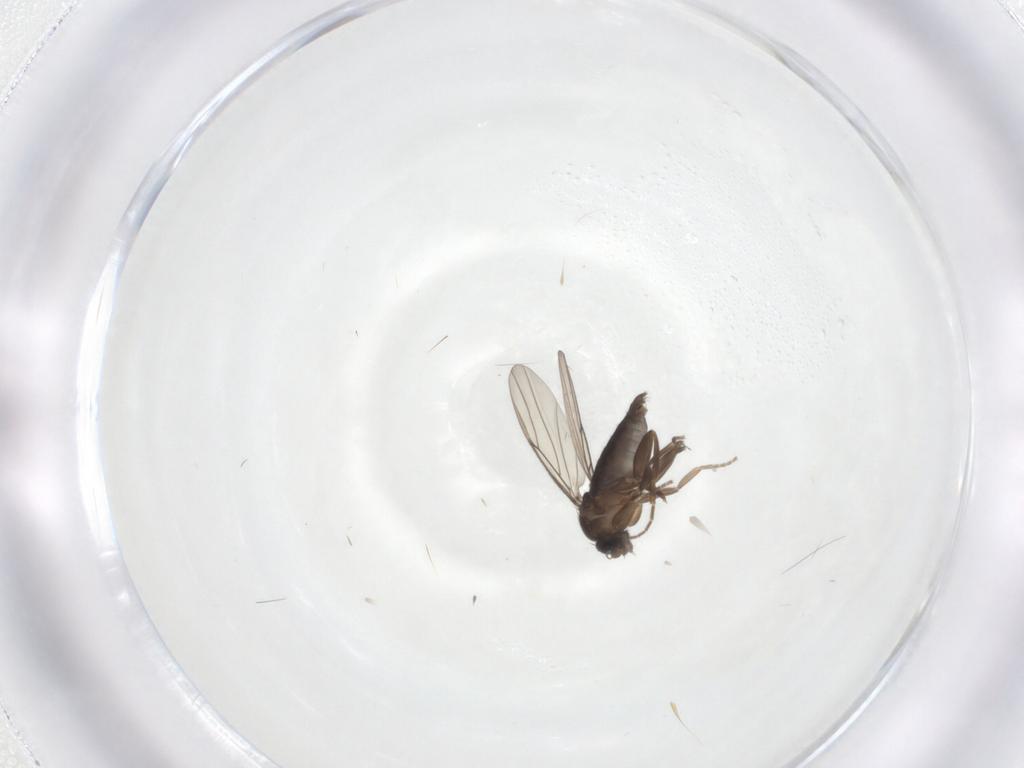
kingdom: Animalia
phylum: Arthropoda
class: Insecta
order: Diptera
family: Phoridae
